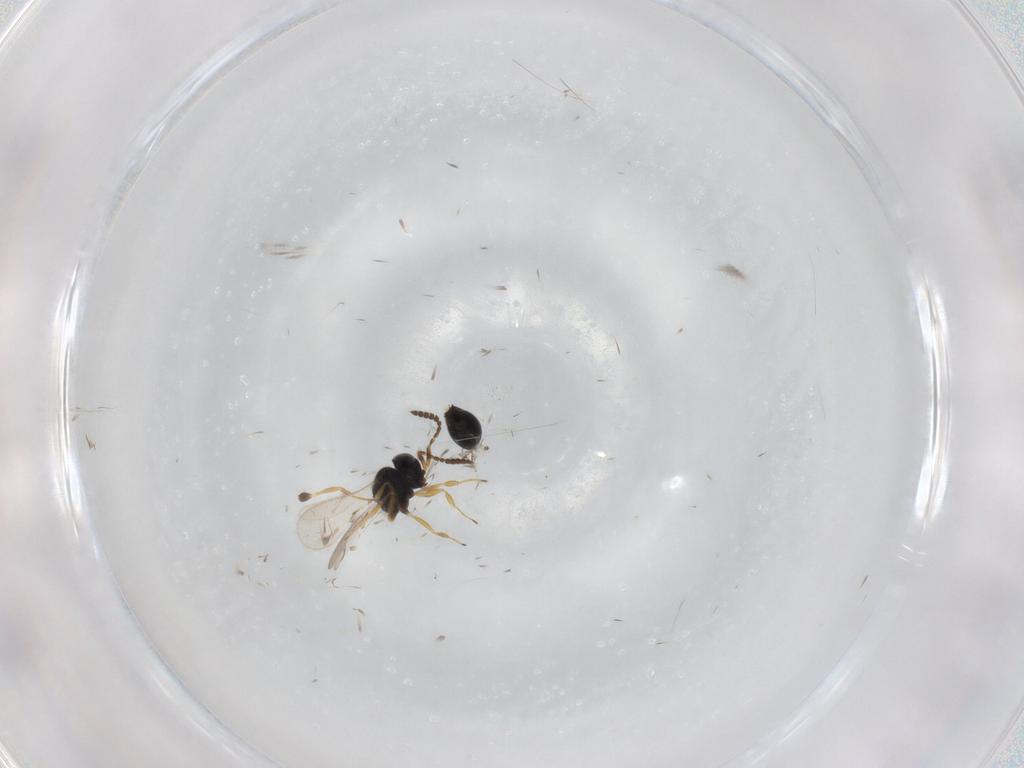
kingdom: Animalia
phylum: Arthropoda
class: Insecta
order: Hymenoptera
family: Scelionidae
